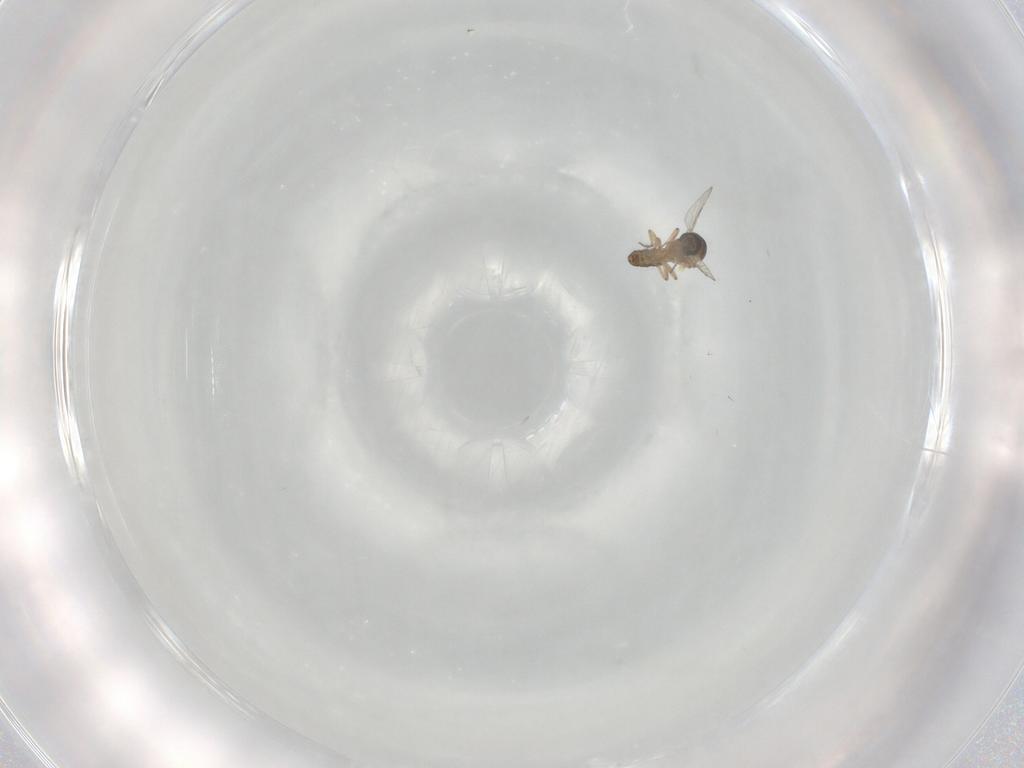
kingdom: Animalia
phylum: Arthropoda
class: Insecta
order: Diptera
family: Ceratopogonidae
